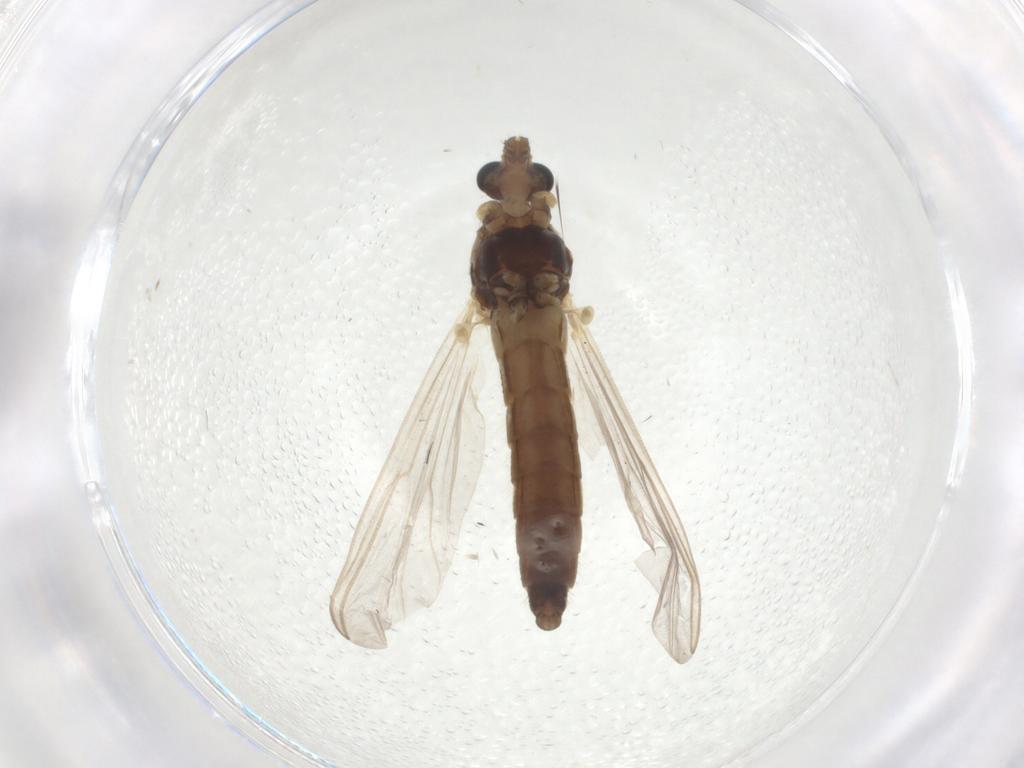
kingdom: Animalia
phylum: Arthropoda
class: Insecta
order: Diptera
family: Chironomidae
